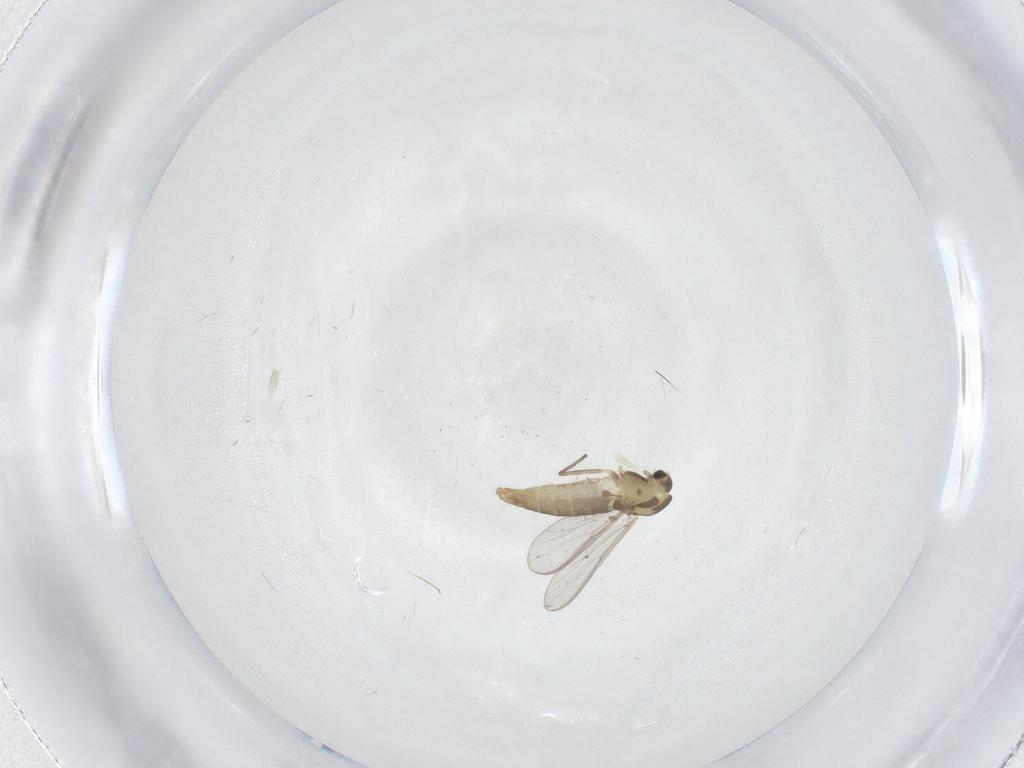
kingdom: Animalia
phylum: Arthropoda
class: Insecta
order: Diptera
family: Chironomidae
